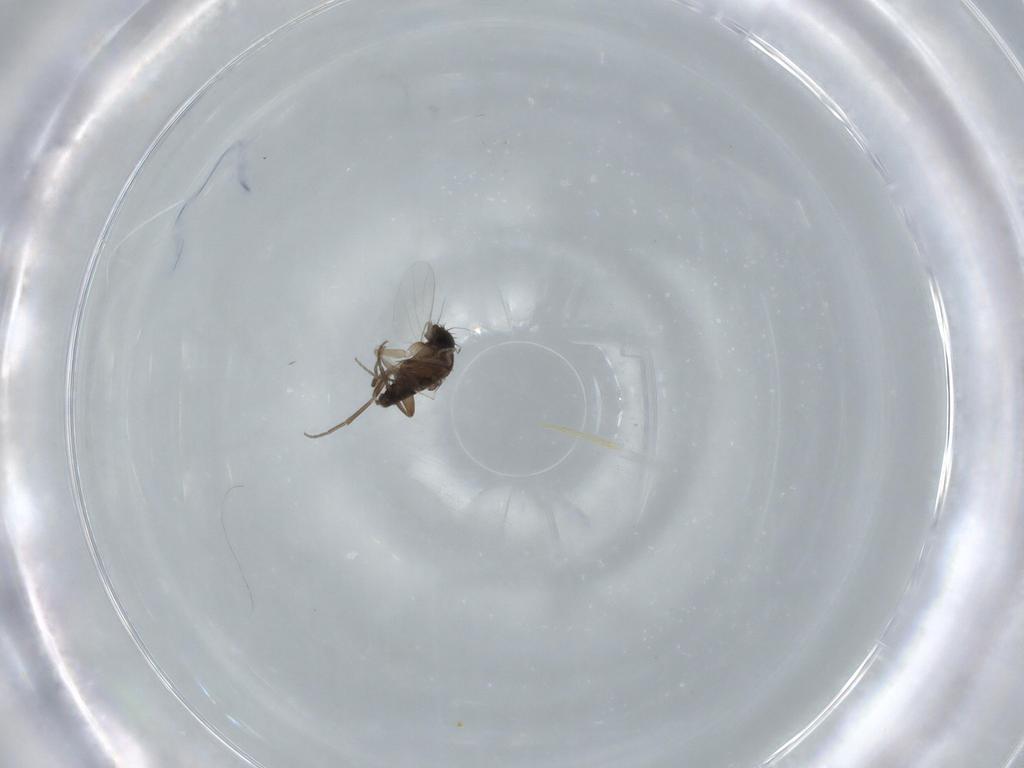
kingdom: Animalia
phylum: Arthropoda
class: Insecta
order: Diptera
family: Phoridae
